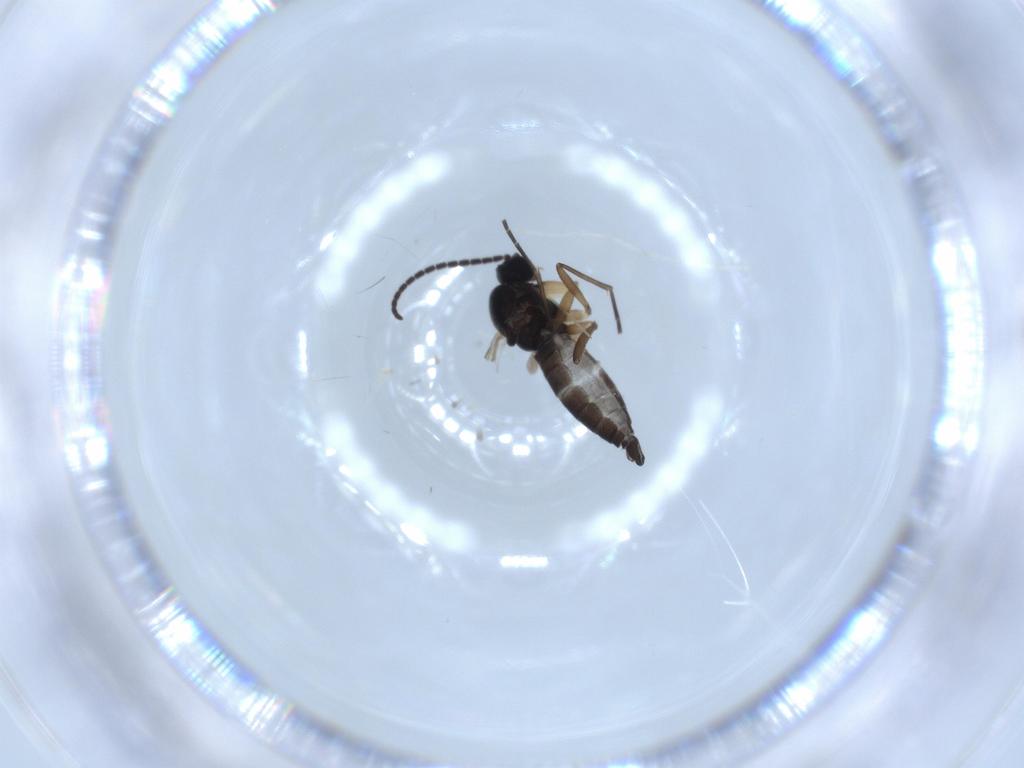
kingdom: Animalia
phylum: Arthropoda
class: Insecta
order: Diptera
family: Sciaridae
